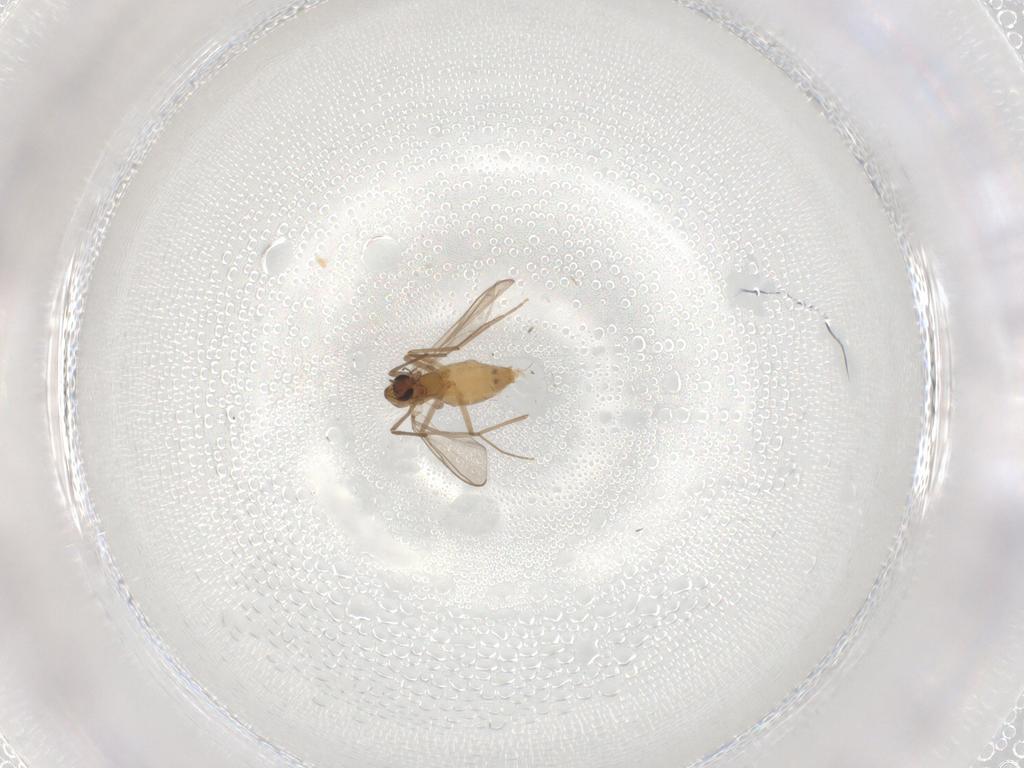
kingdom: Animalia
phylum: Arthropoda
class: Insecta
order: Diptera
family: Chironomidae
